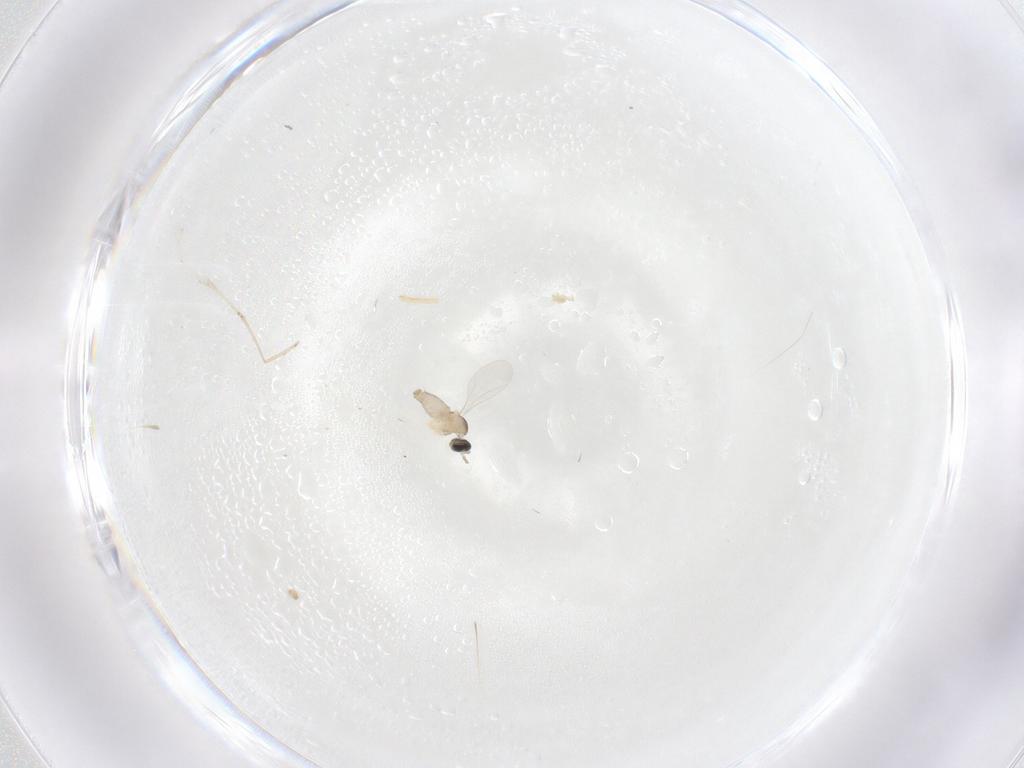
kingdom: Animalia
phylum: Arthropoda
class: Insecta
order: Diptera
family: Cecidomyiidae
